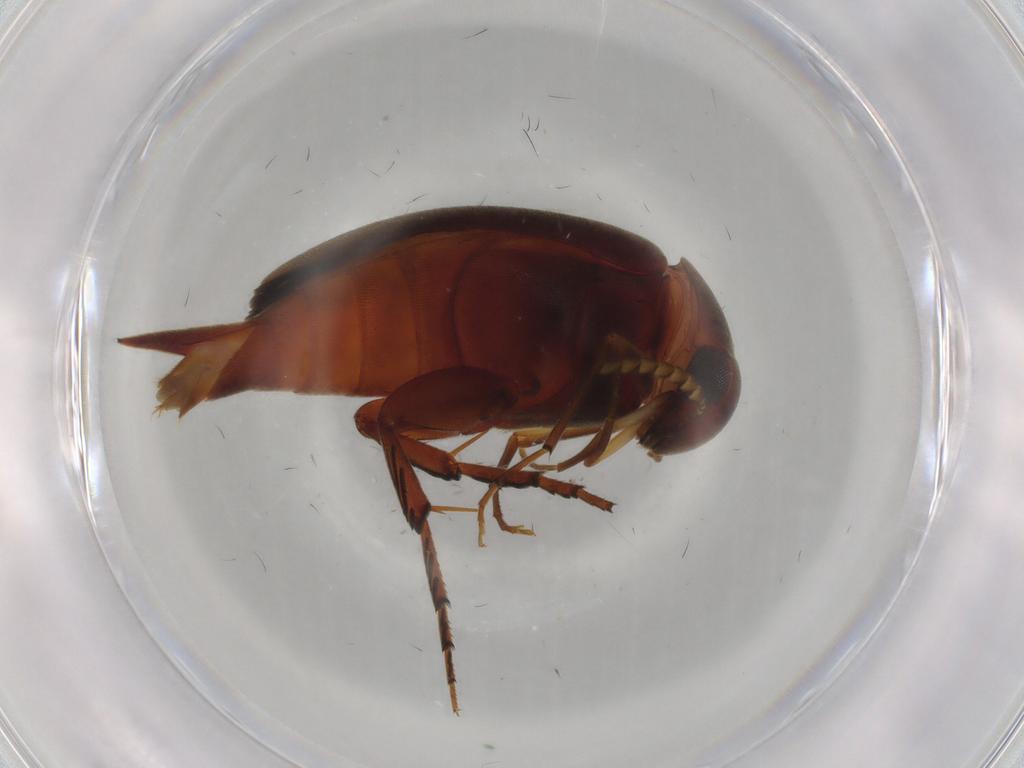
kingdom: Animalia
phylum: Arthropoda
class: Insecta
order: Coleoptera
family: Mordellidae
